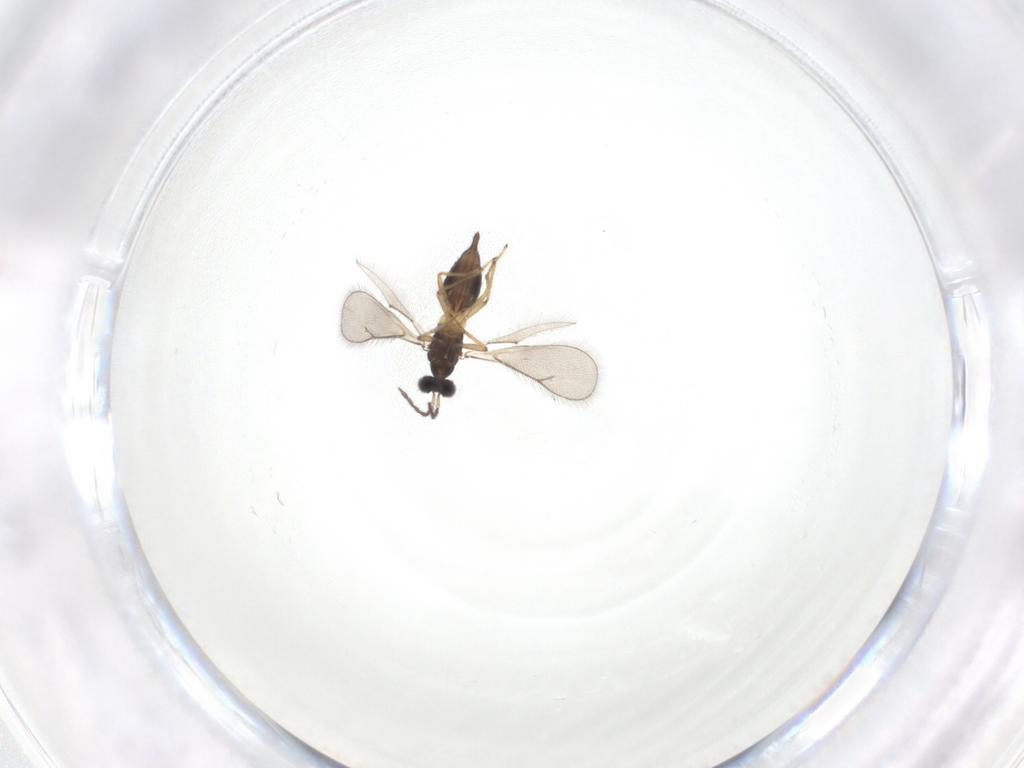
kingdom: Animalia
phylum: Arthropoda
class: Insecta
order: Hymenoptera
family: Eulophidae
